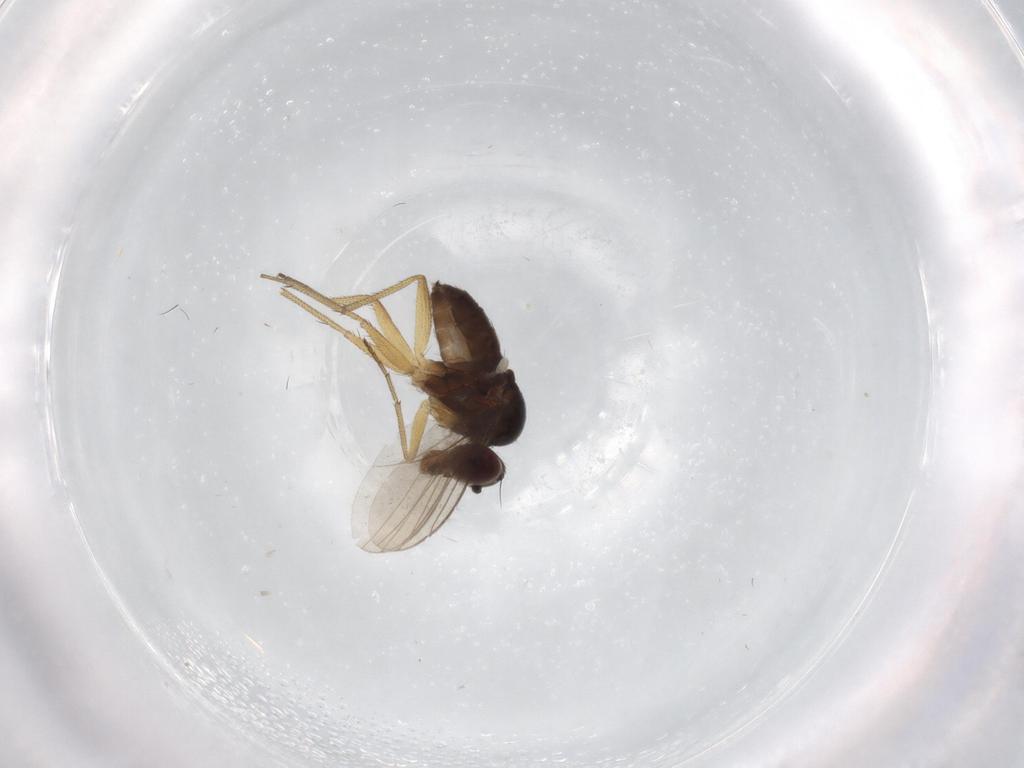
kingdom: Animalia
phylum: Arthropoda
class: Insecta
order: Diptera
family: Dolichopodidae
